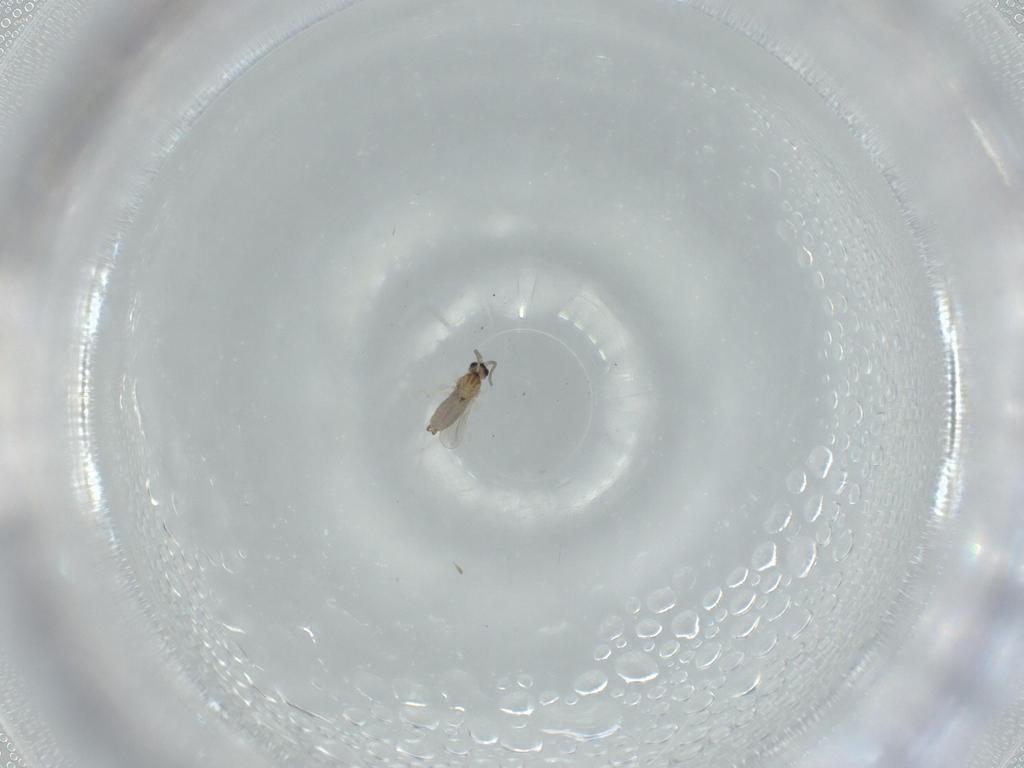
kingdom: Animalia
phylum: Arthropoda
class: Insecta
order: Diptera
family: Cecidomyiidae
